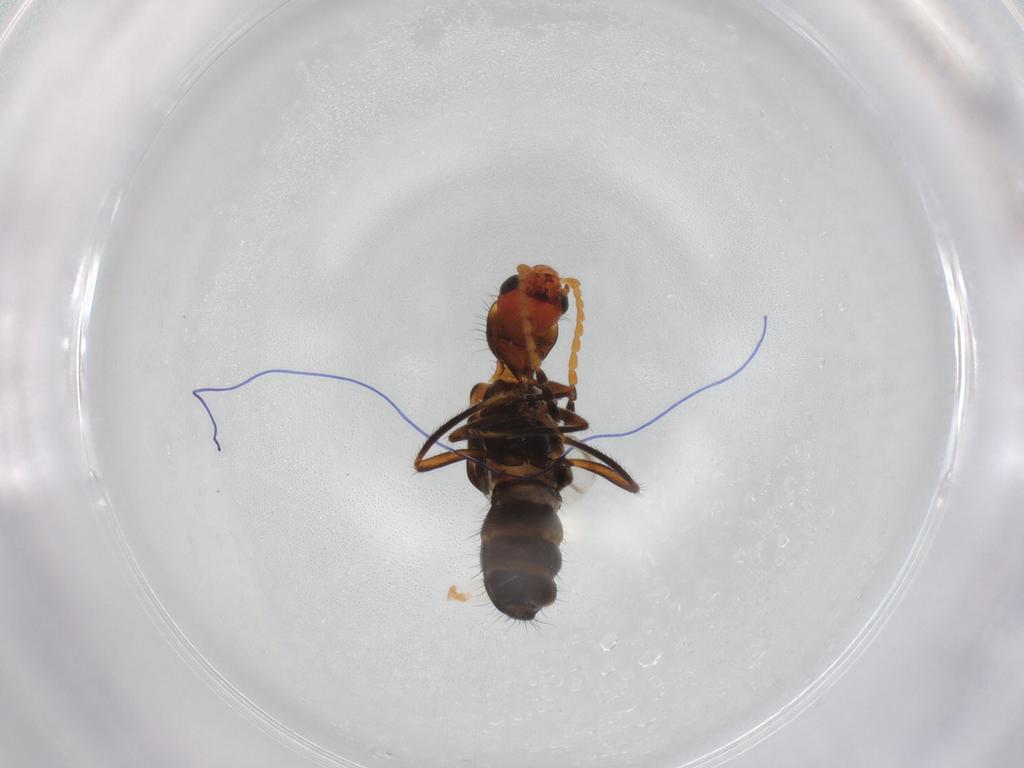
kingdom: Animalia
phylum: Arthropoda
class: Insecta
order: Coleoptera
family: Melyridae
